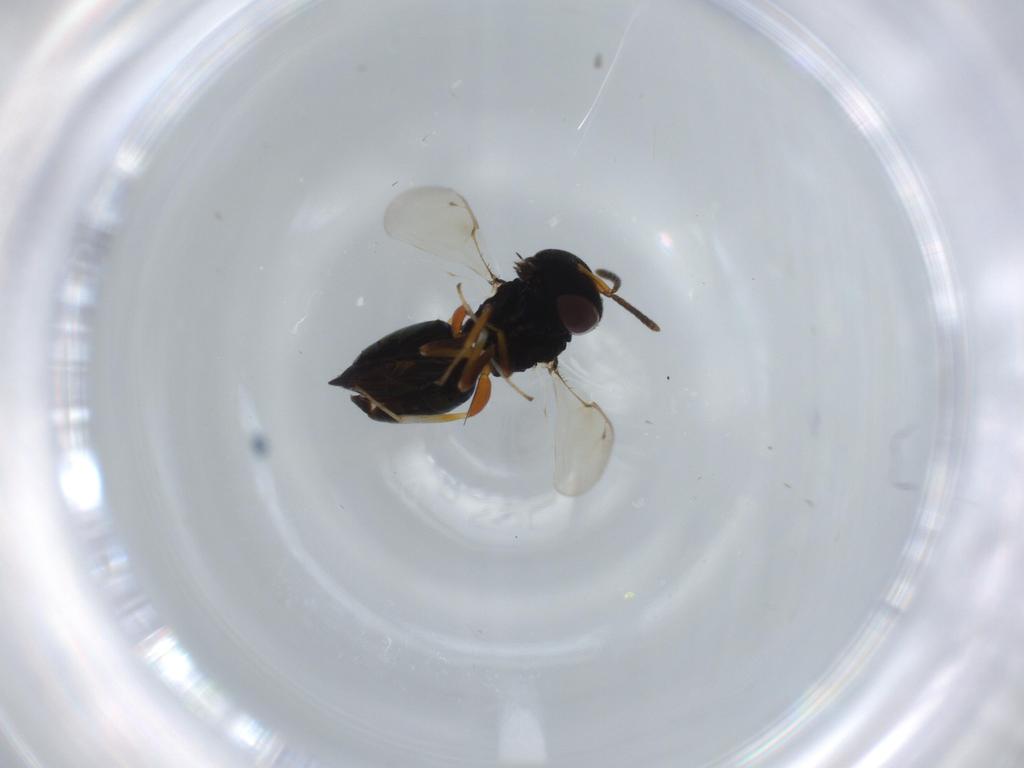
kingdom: Animalia
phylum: Arthropoda
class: Insecta
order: Hymenoptera
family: Pteromalidae
